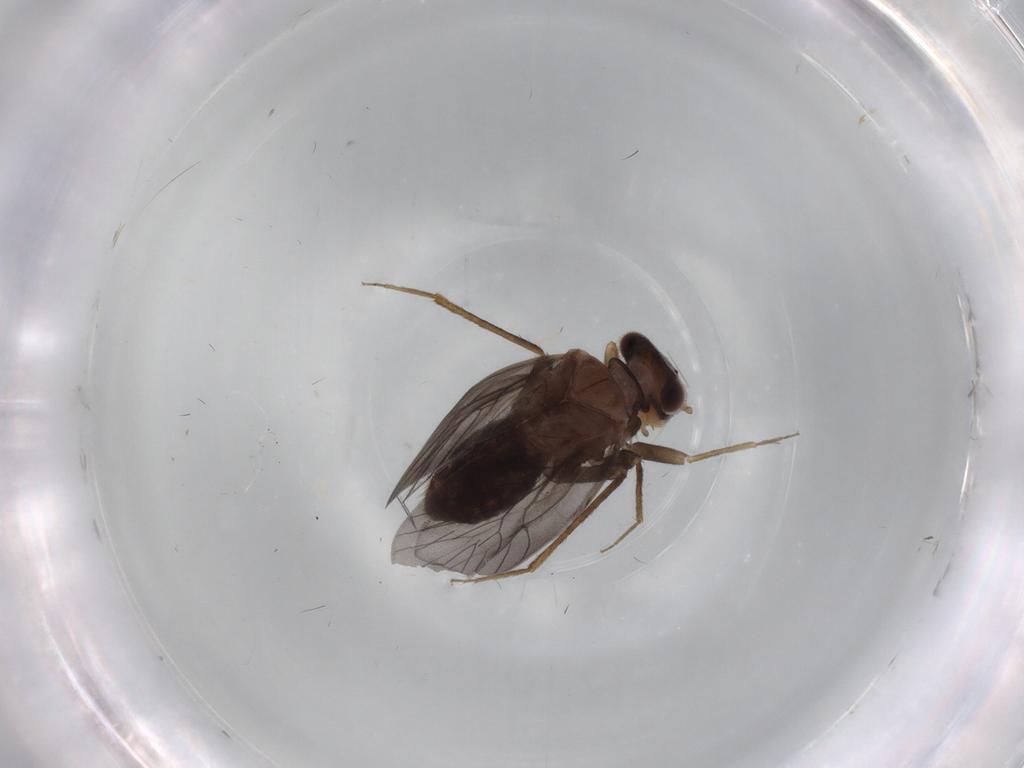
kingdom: Animalia
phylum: Arthropoda
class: Insecta
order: Diptera
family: Cecidomyiidae
